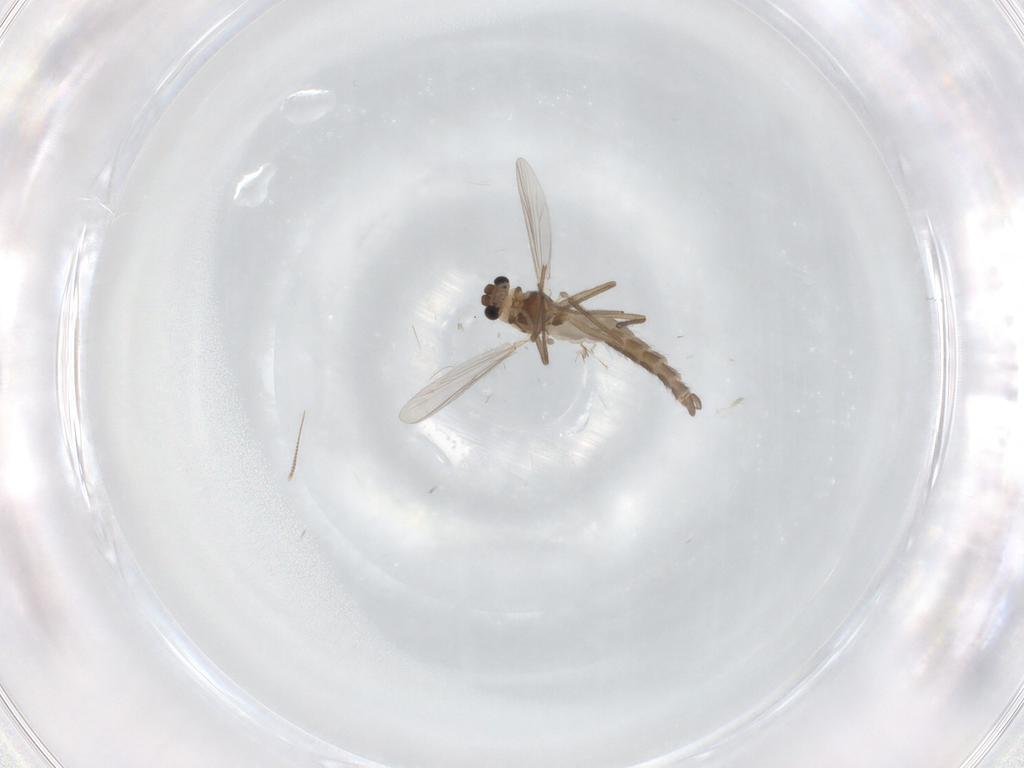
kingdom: Animalia
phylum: Arthropoda
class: Insecta
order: Diptera
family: Chironomidae
